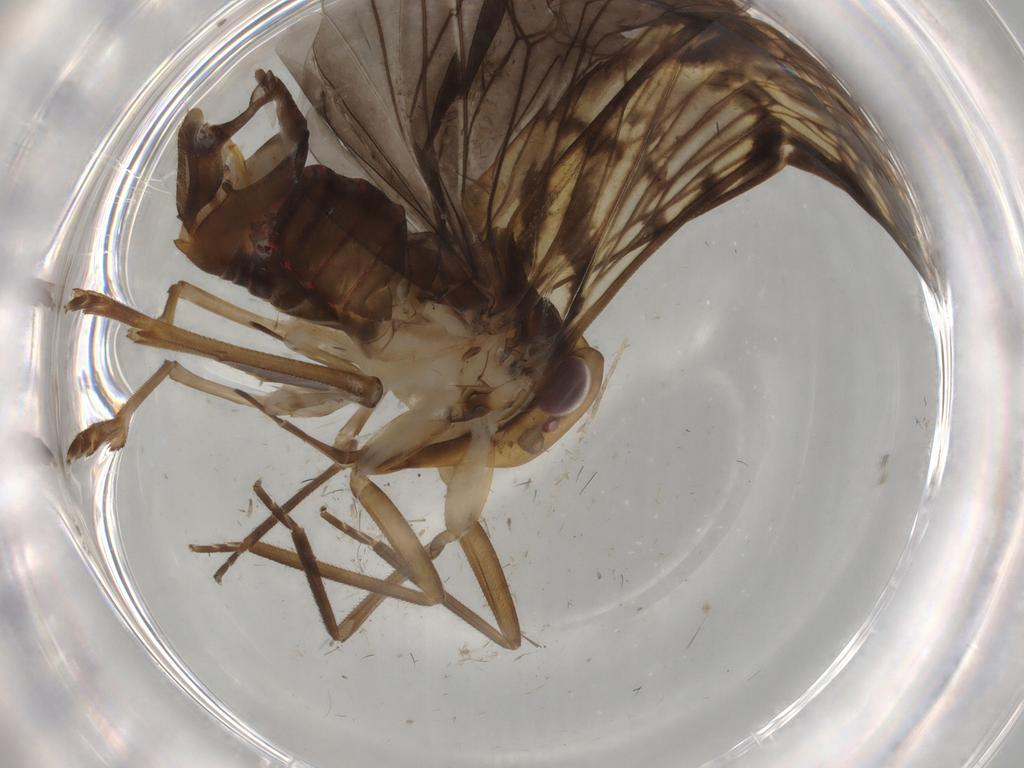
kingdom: Animalia
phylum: Arthropoda
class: Insecta
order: Hemiptera
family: Cixiidae
